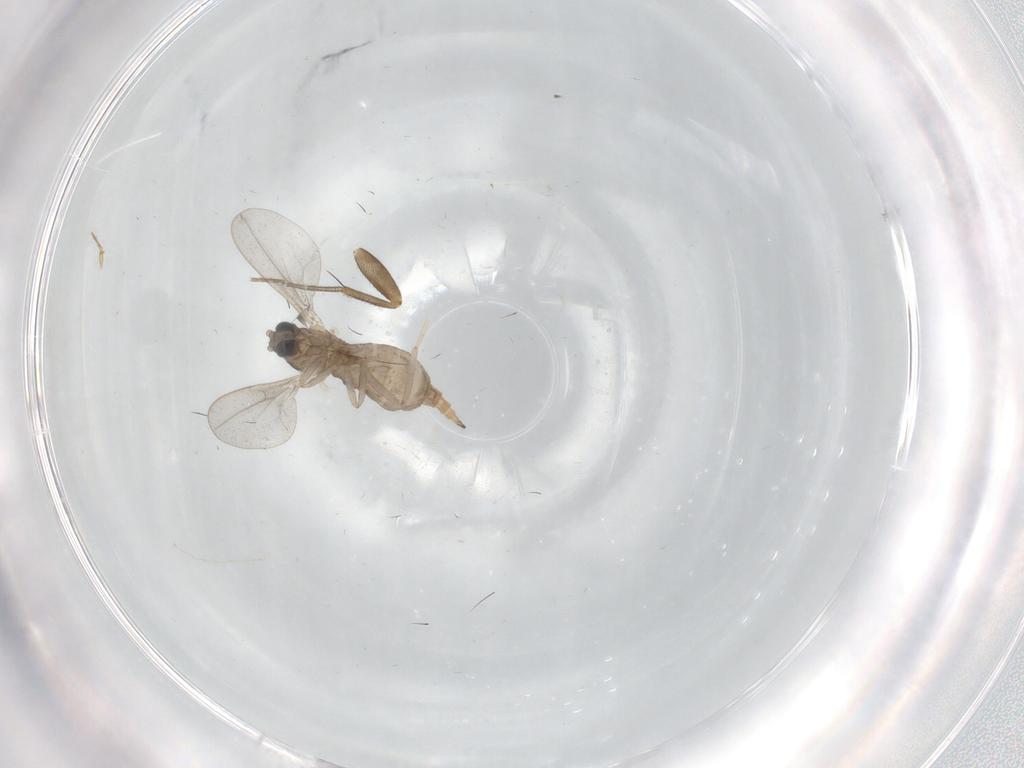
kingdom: Animalia
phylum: Arthropoda
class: Insecta
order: Diptera
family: Cecidomyiidae
